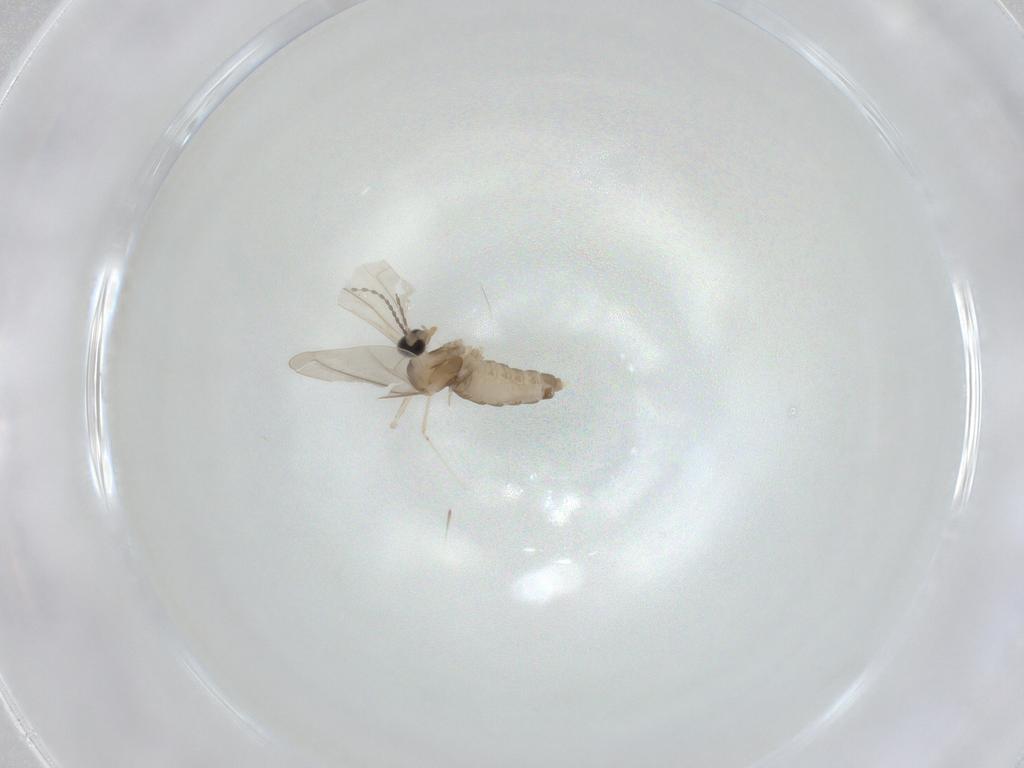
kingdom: Animalia
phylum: Arthropoda
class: Insecta
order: Diptera
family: Cecidomyiidae
